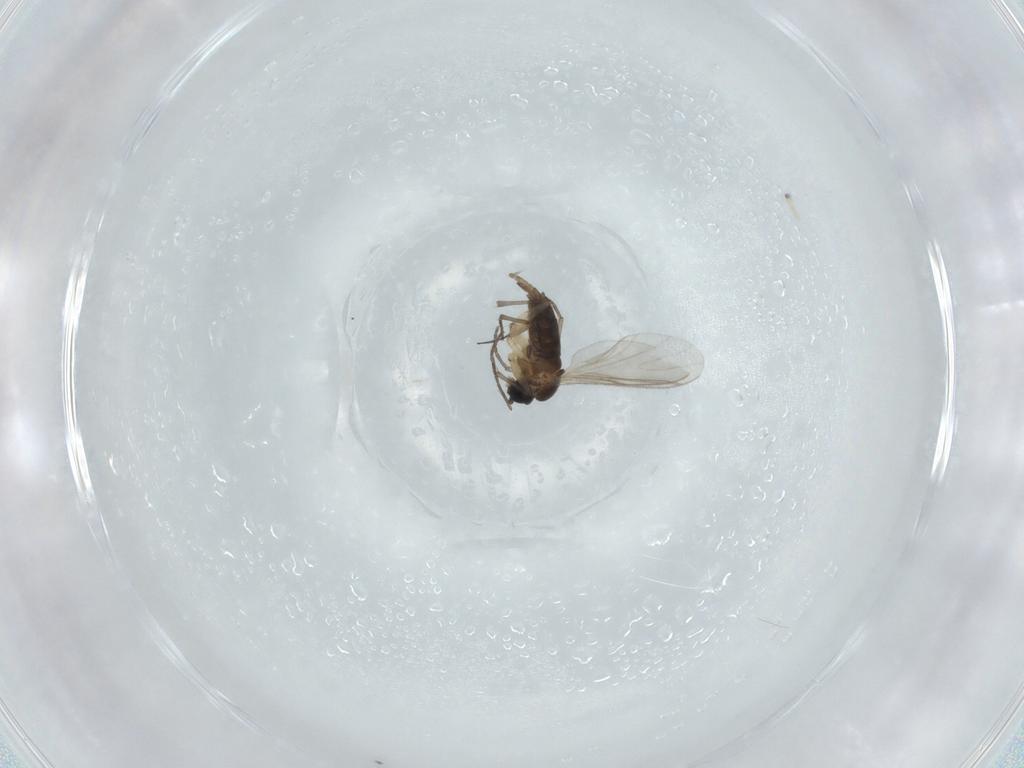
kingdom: Animalia
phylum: Arthropoda
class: Insecta
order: Diptera
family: Sciaridae
